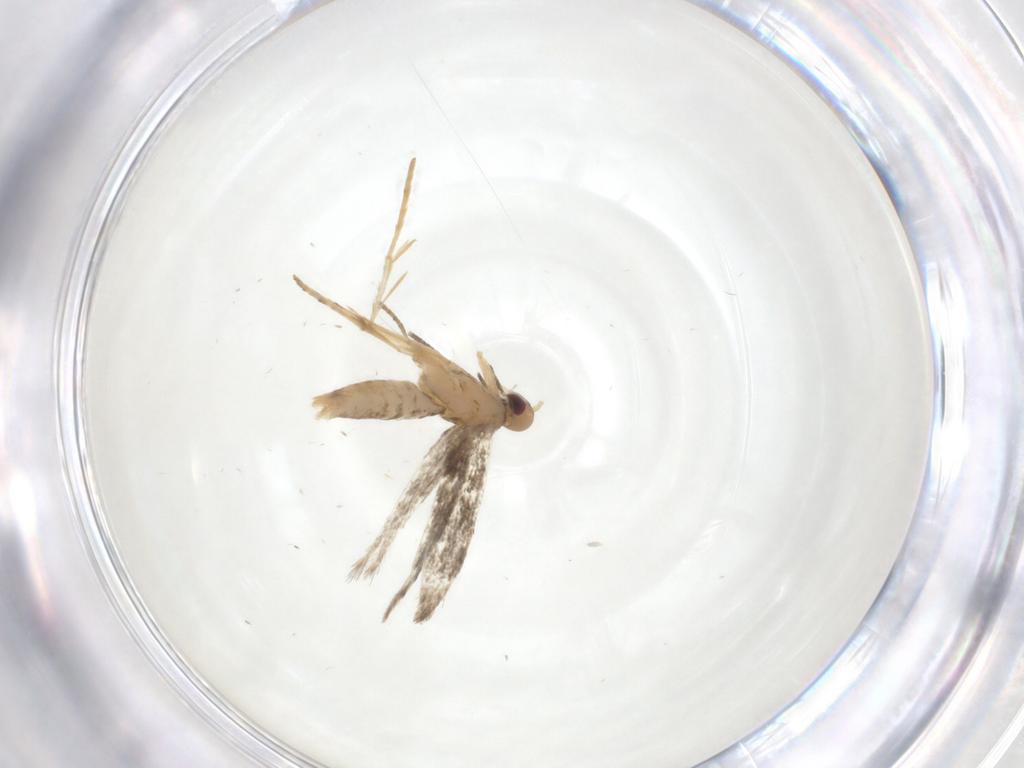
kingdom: Animalia
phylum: Arthropoda
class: Insecta
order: Lepidoptera
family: Gracillariidae
